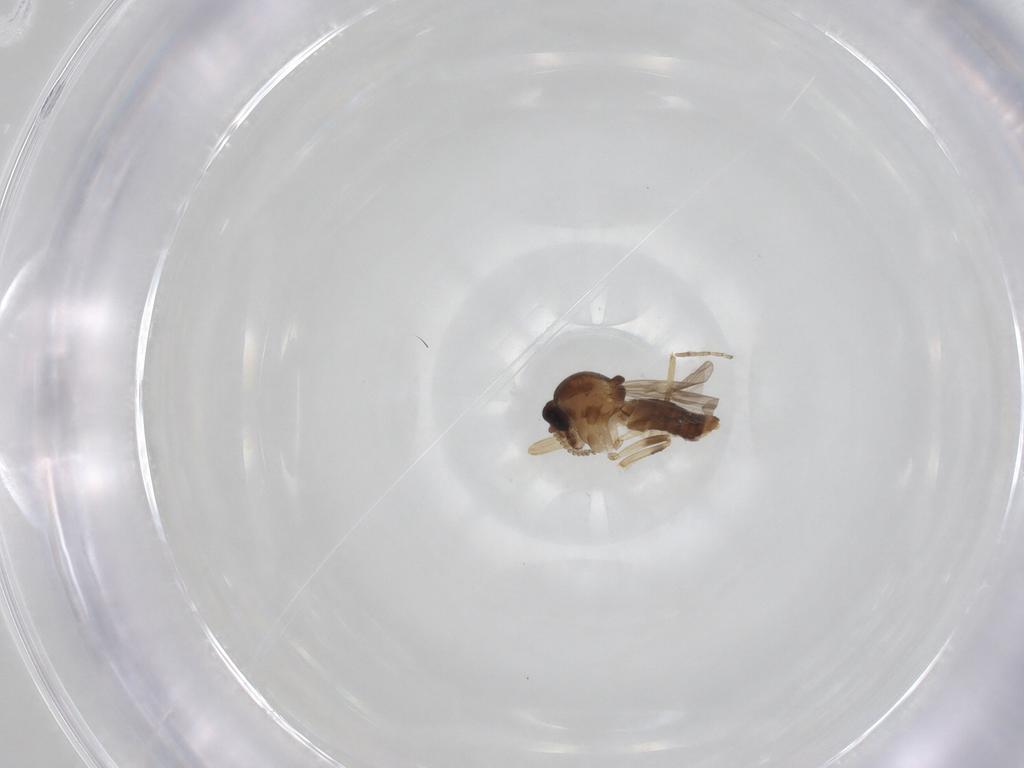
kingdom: Animalia
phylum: Arthropoda
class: Insecta
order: Diptera
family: Ceratopogonidae
